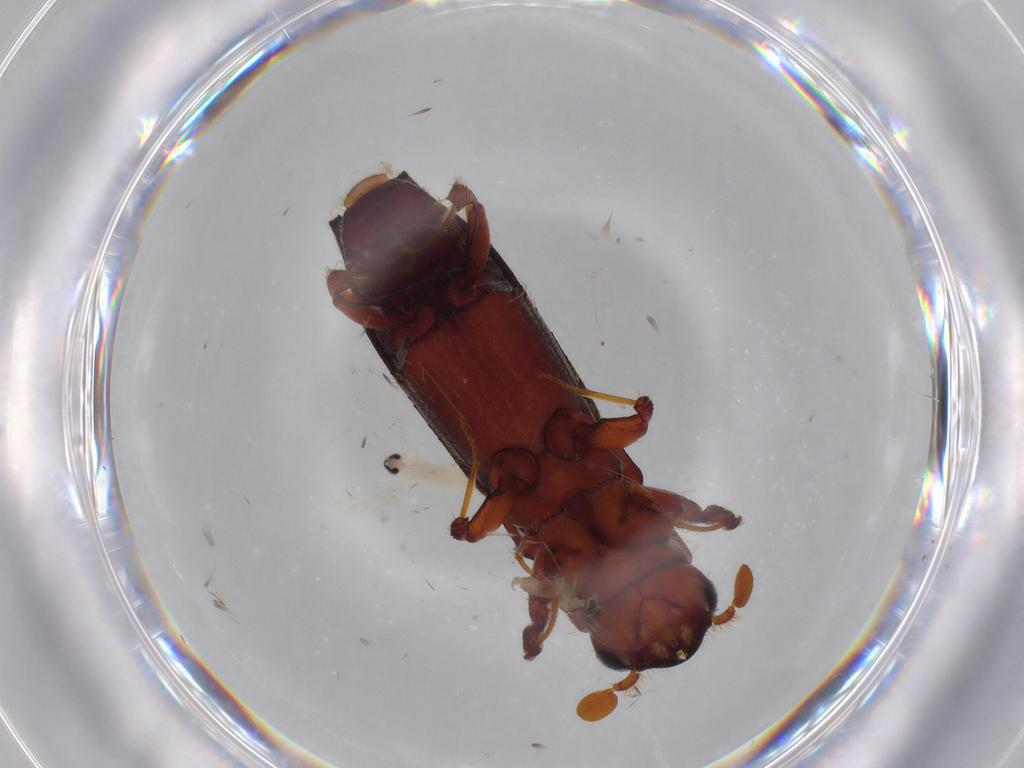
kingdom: Animalia
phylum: Arthropoda
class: Insecta
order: Diptera
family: Cecidomyiidae
